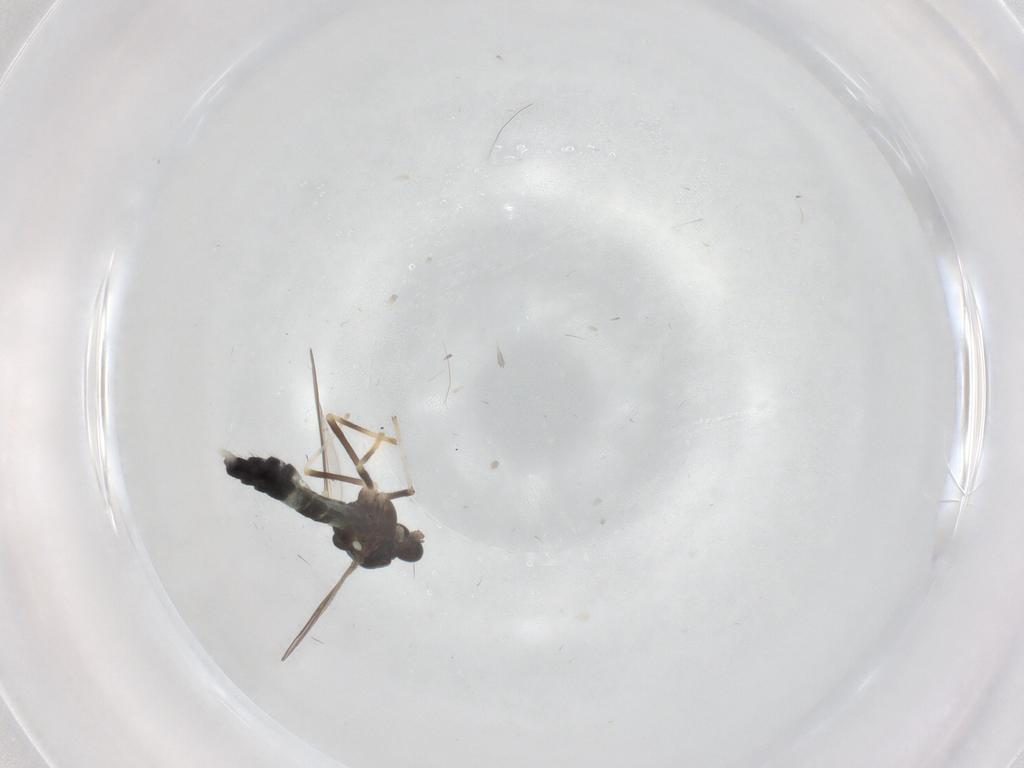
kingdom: Animalia
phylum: Arthropoda
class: Insecta
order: Diptera
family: Chironomidae
